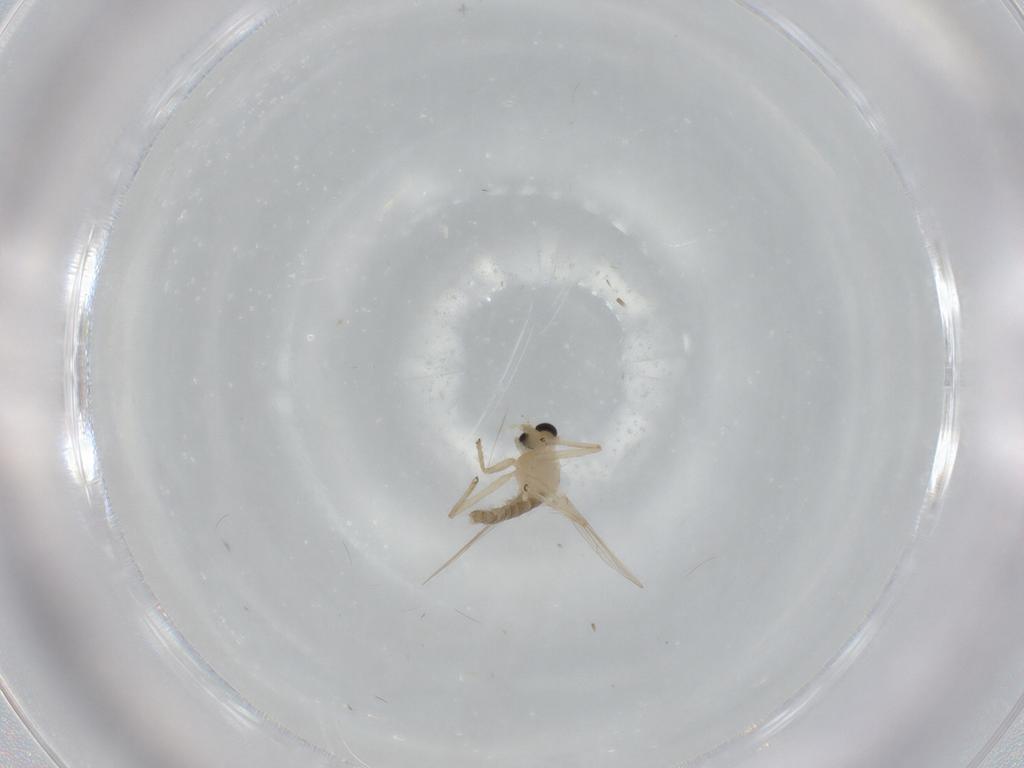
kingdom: Animalia
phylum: Arthropoda
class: Insecta
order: Diptera
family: Chironomidae
